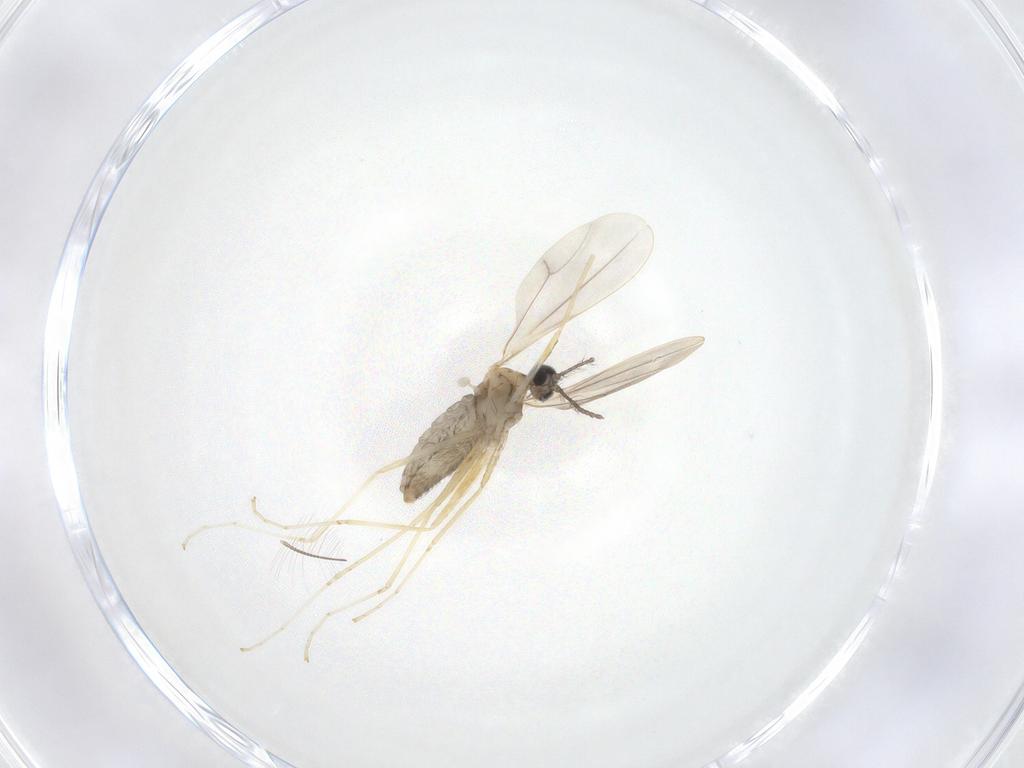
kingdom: Animalia
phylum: Arthropoda
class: Insecta
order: Diptera
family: Cecidomyiidae
